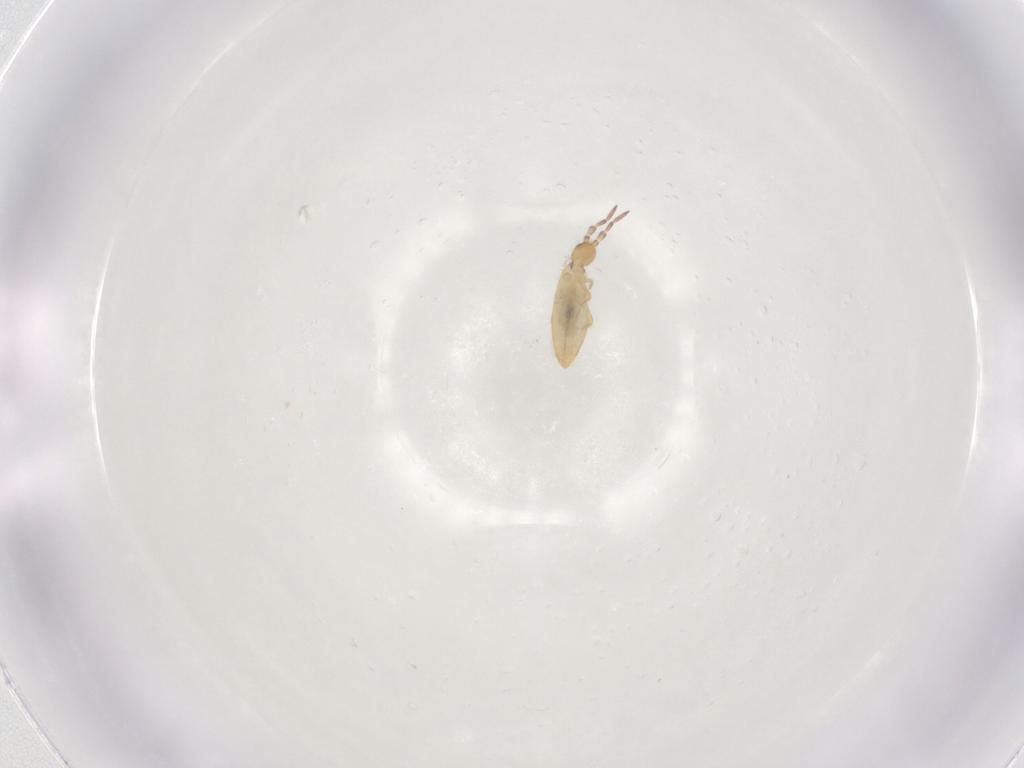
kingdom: Animalia
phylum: Arthropoda
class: Collembola
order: Entomobryomorpha
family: Entomobryidae
